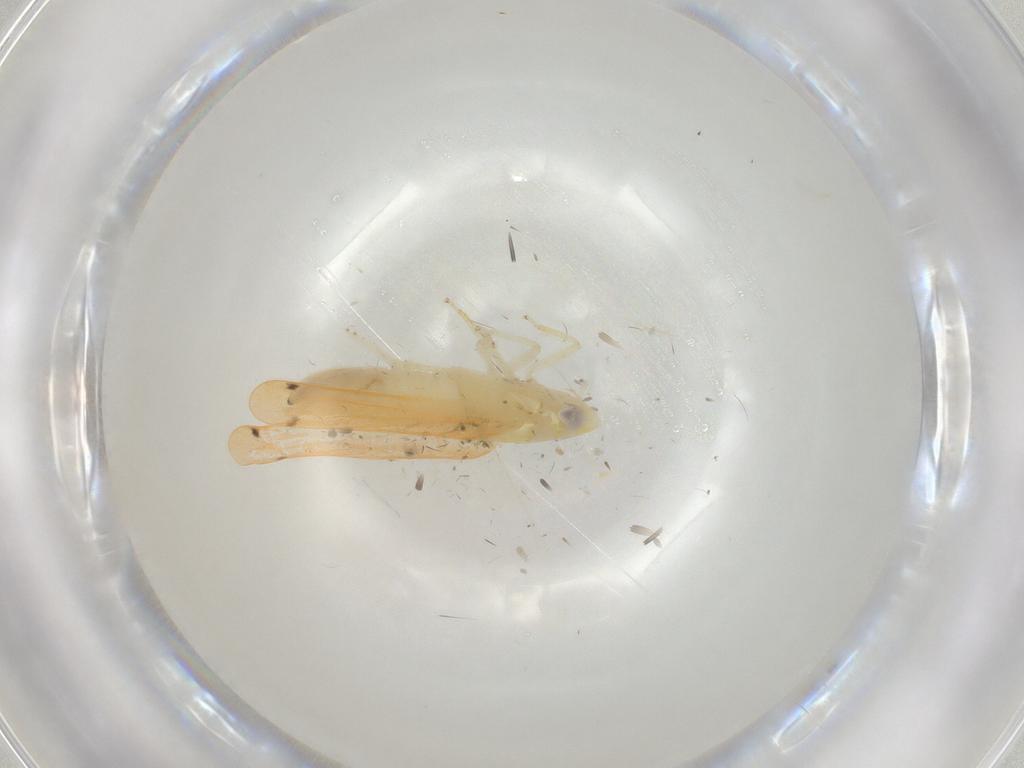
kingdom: Animalia
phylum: Arthropoda
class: Insecta
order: Hemiptera
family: Cicadellidae
